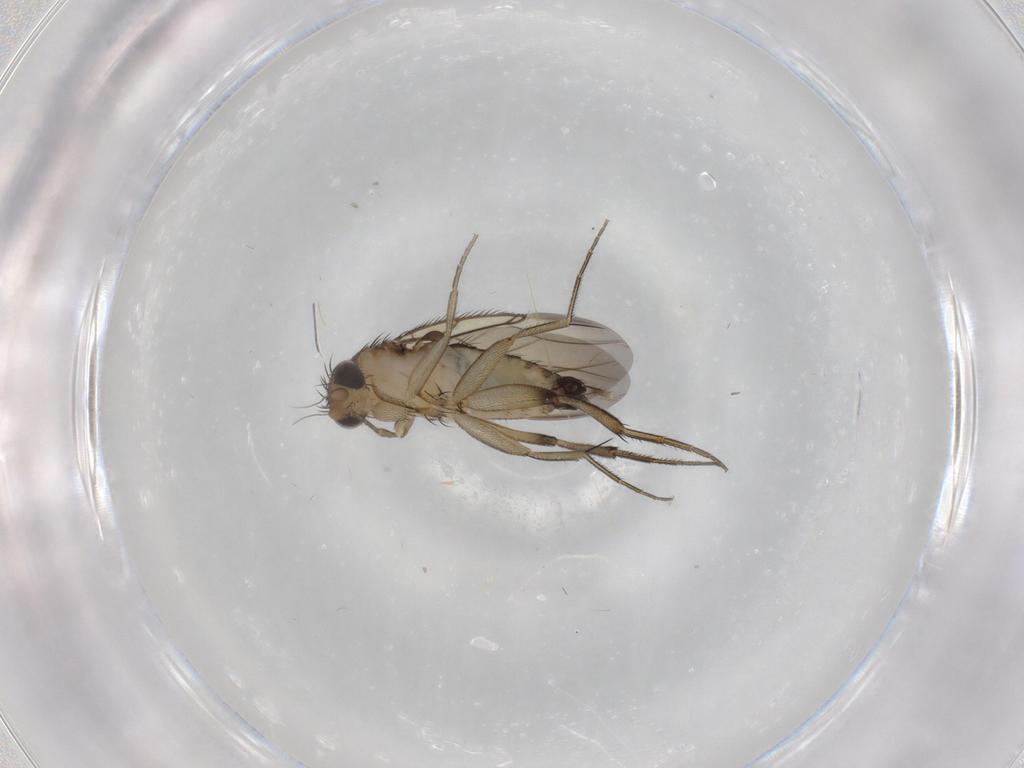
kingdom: Animalia
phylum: Arthropoda
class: Insecta
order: Diptera
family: Phoridae
